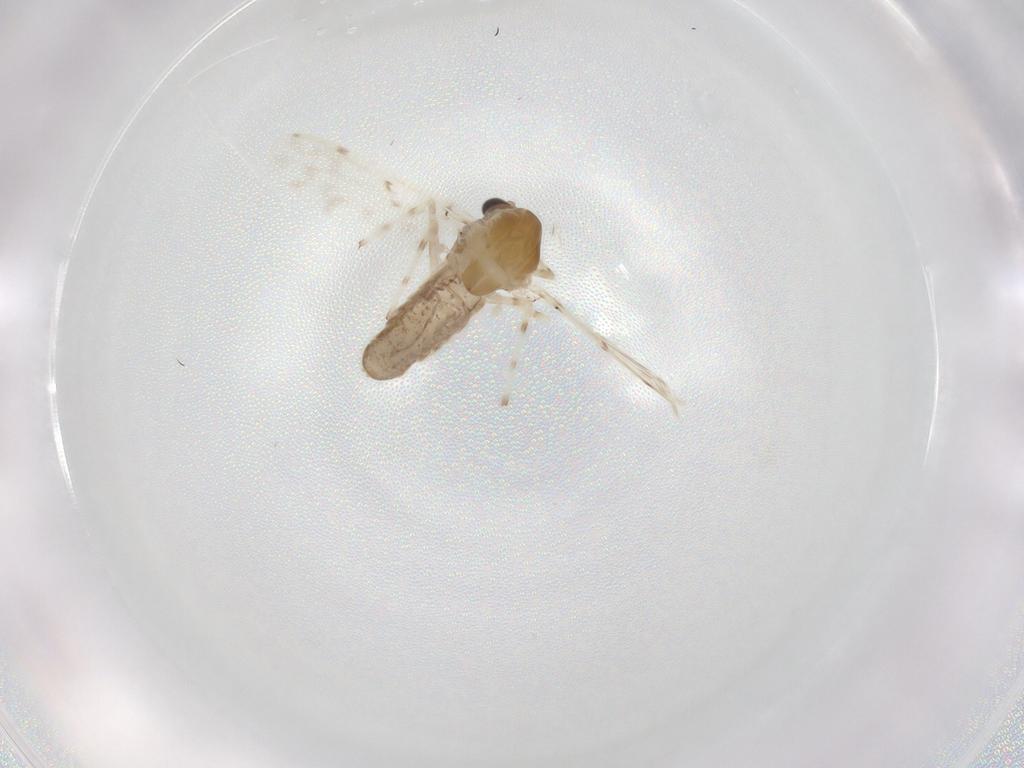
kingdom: Animalia
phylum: Arthropoda
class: Insecta
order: Diptera
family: Chironomidae
